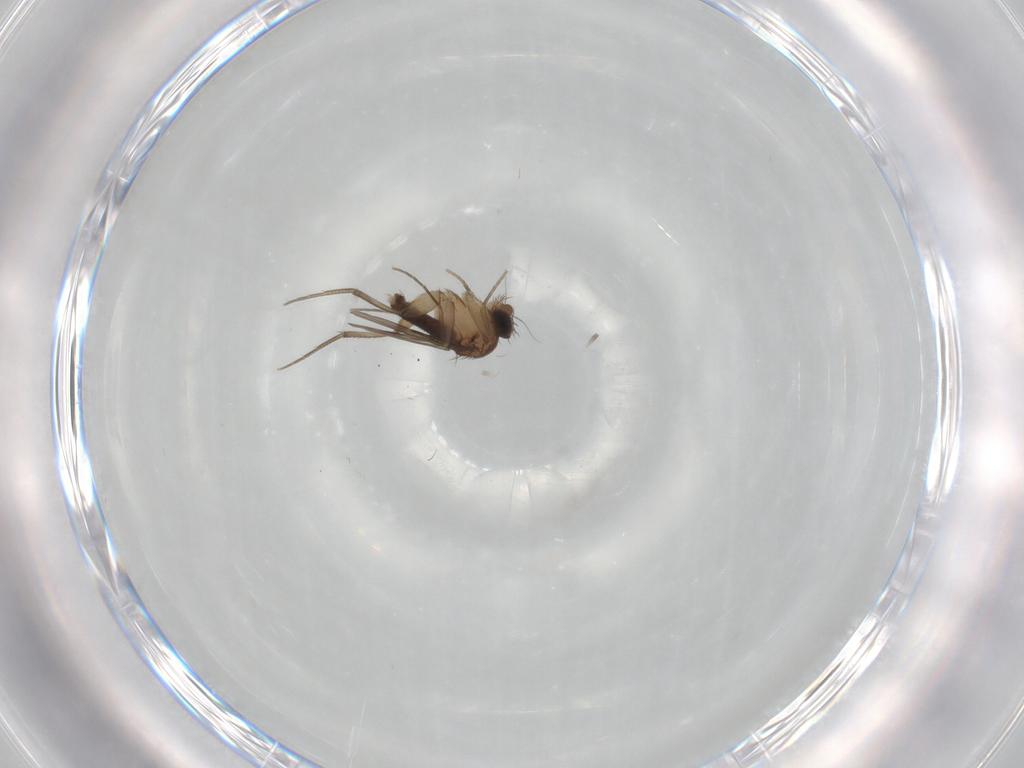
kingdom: Animalia
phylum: Arthropoda
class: Insecta
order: Diptera
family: Phoridae
